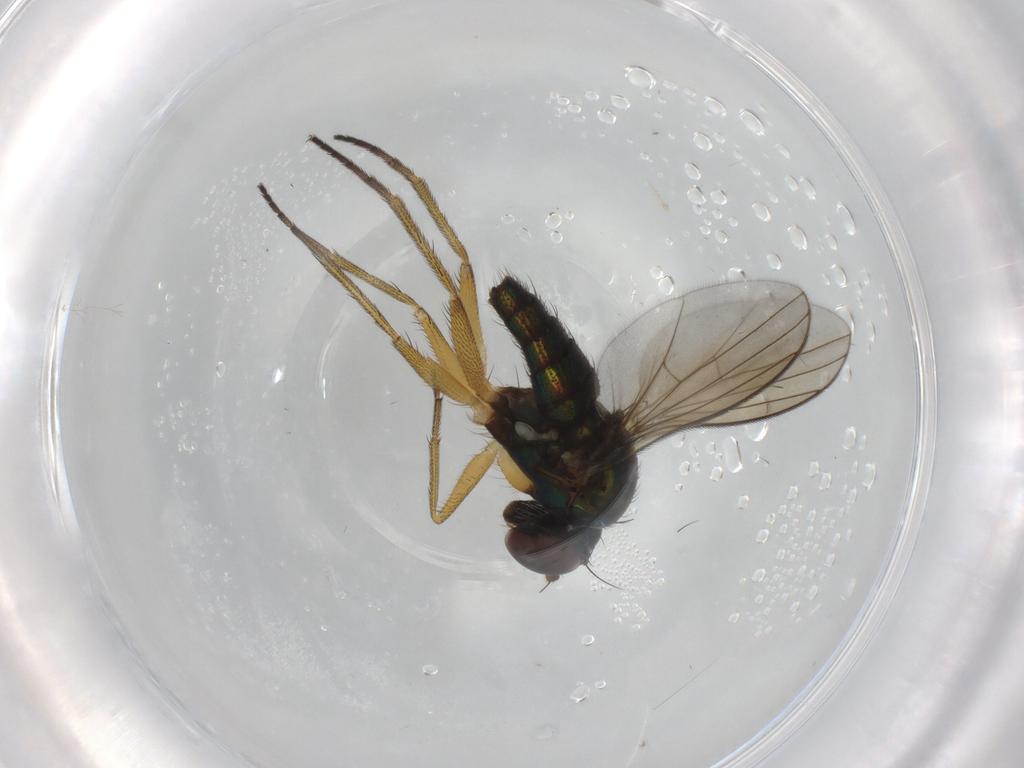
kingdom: Animalia
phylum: Arthropoda
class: Insecta
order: Diptera
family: Dolichopodidae
